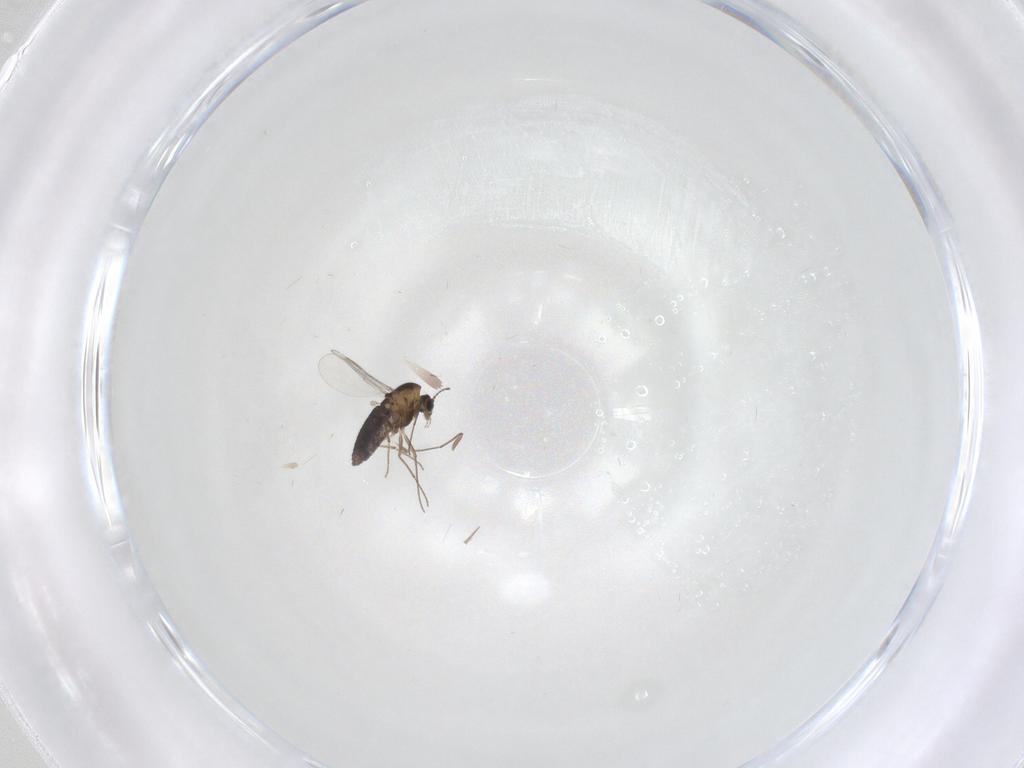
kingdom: Animalia
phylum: Arthropoda
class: Insecta
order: Diptera
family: Chironomidae
